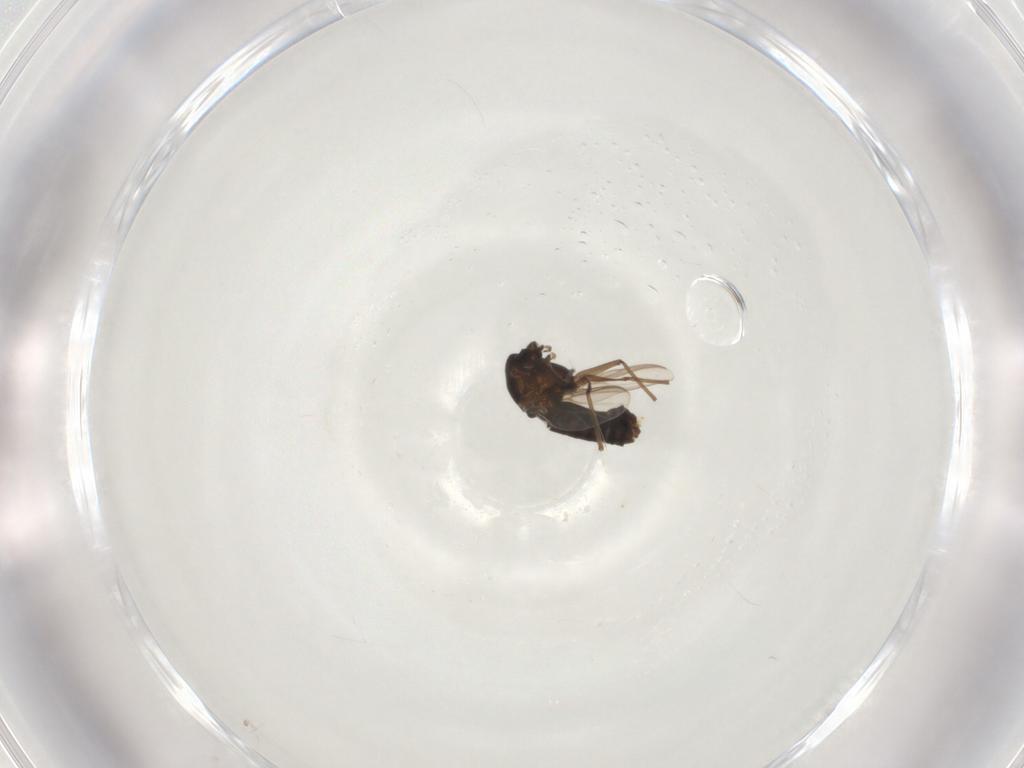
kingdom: Animalia
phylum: Arthropoda
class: Insecta
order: Diptera
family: Chironomidae
